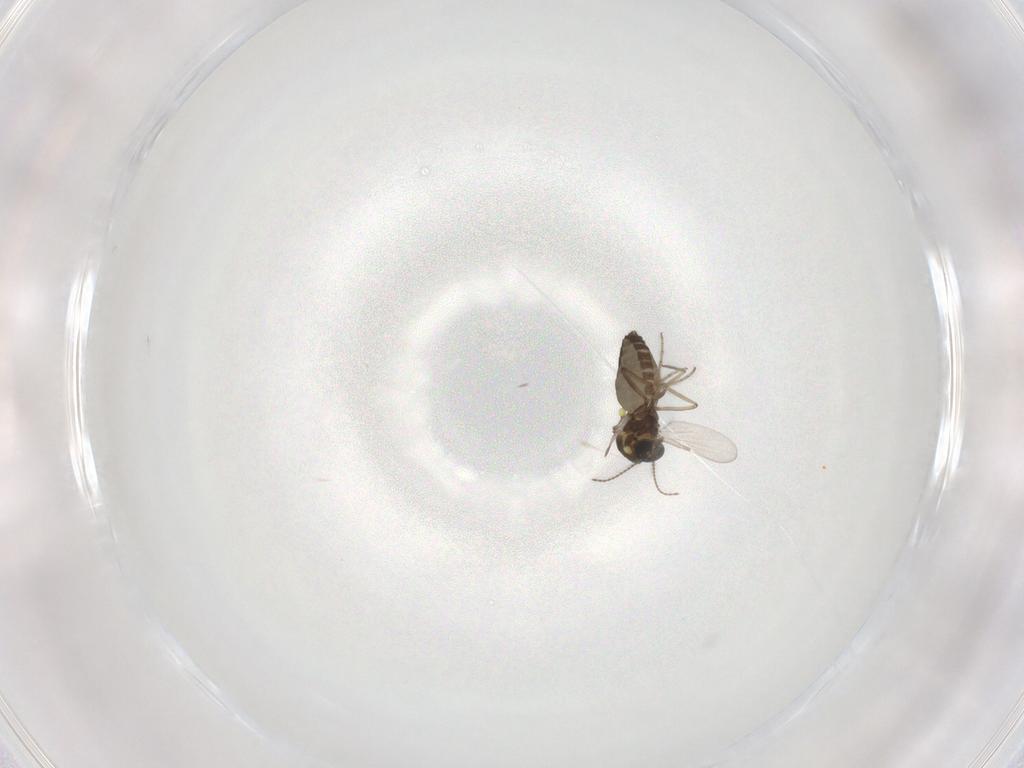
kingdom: Animalia
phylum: Arthropoda
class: Insecta
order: Diptera
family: Ceratopogonidae
